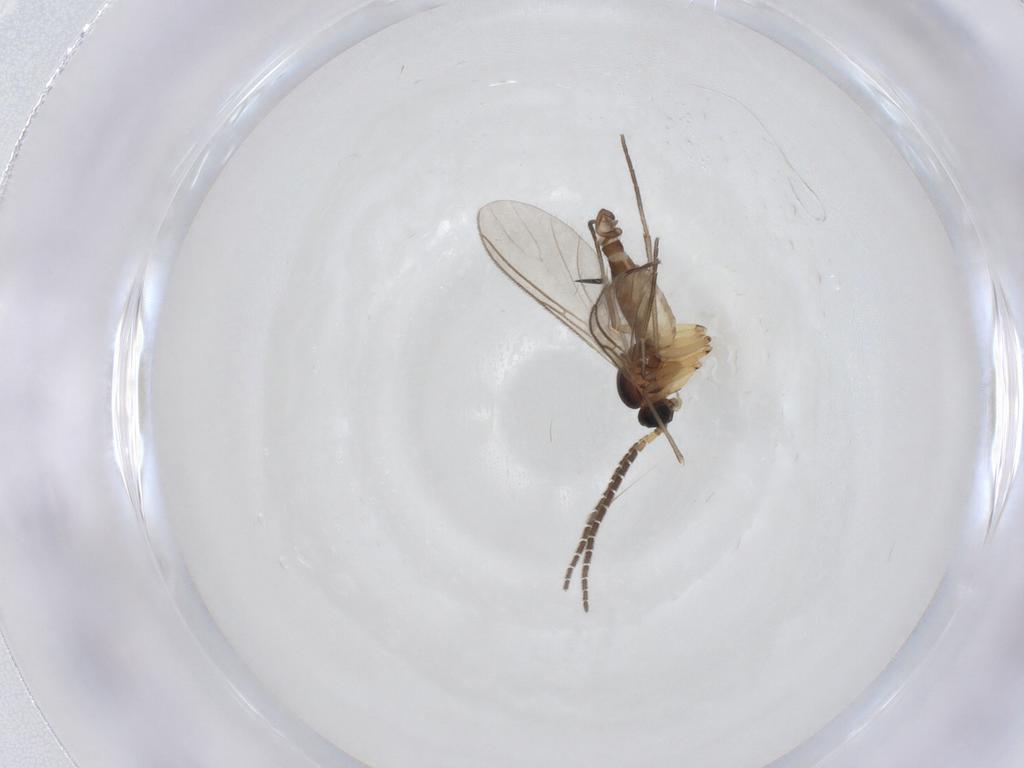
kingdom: Animalia
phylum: Arthropoda
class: Insecta
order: Diptera
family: Sciaridae
